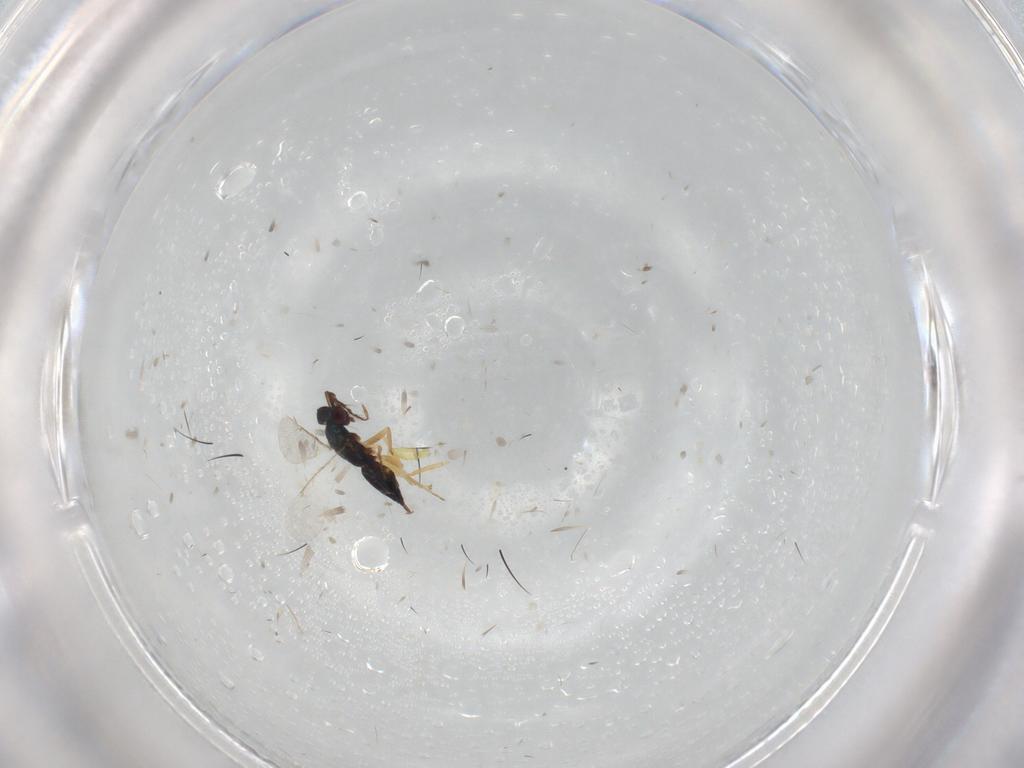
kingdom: Animalia
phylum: Arthropoda
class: Insecta
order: Hymenoptera
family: Eulophidae
